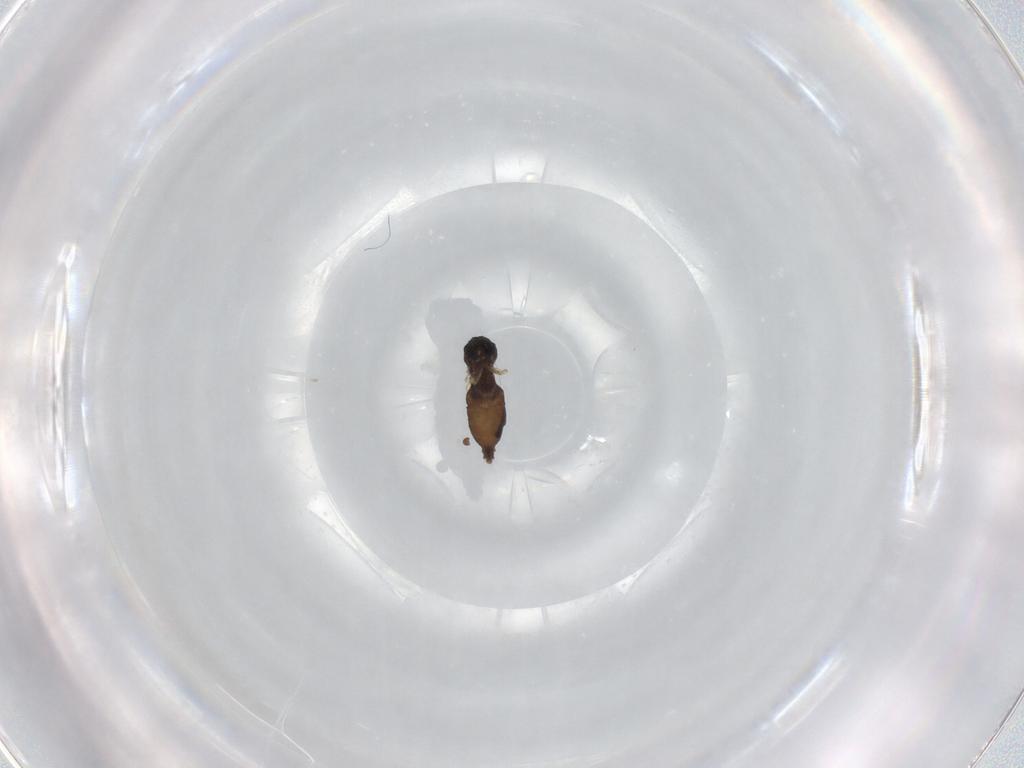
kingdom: Animalia
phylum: Arthropoda
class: Insecta
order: Diptera
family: Phoridae
